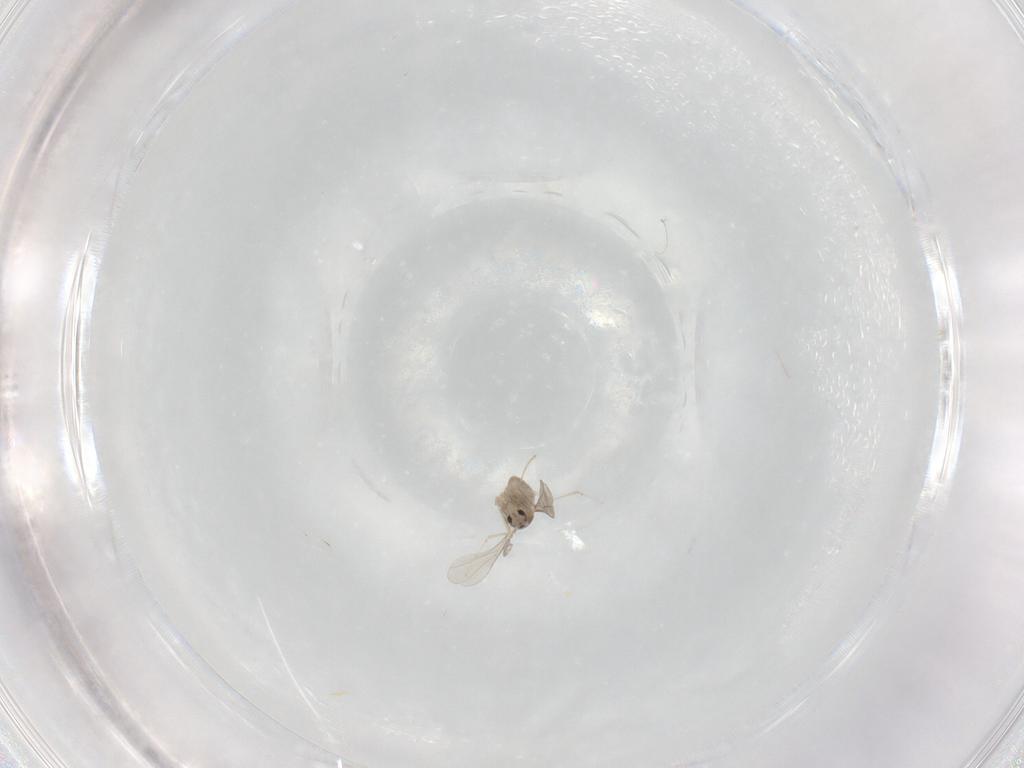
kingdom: Animalia
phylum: Arthropoda
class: Insecta
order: Diptera
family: Cecidomyiidae
